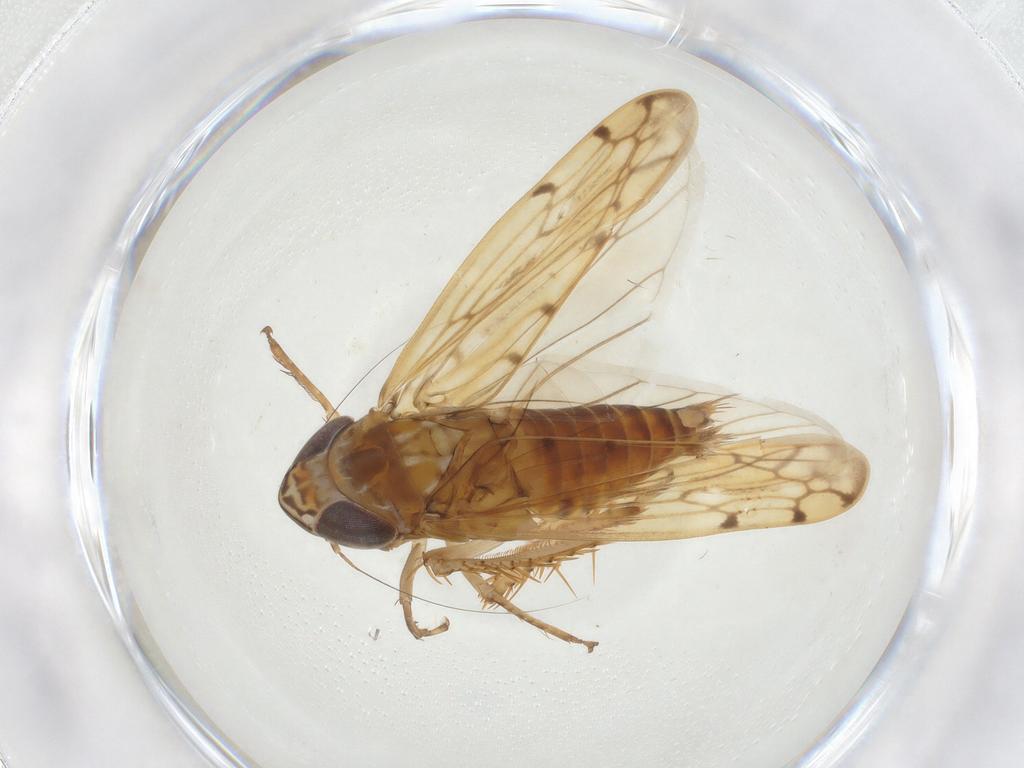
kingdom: Animalia
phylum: Arthropoda
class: Insecta
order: Hemiptera
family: Cicadellidae
